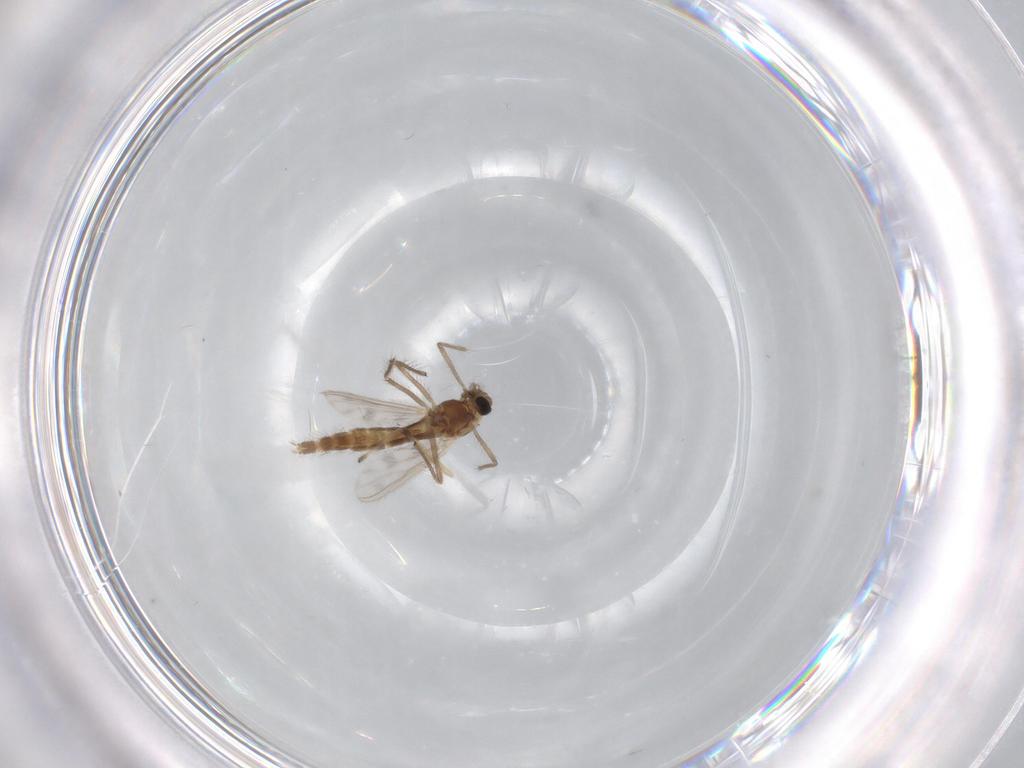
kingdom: Animalia
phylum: Arthropoda
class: Insecta
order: Diptera
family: Chironomidae
